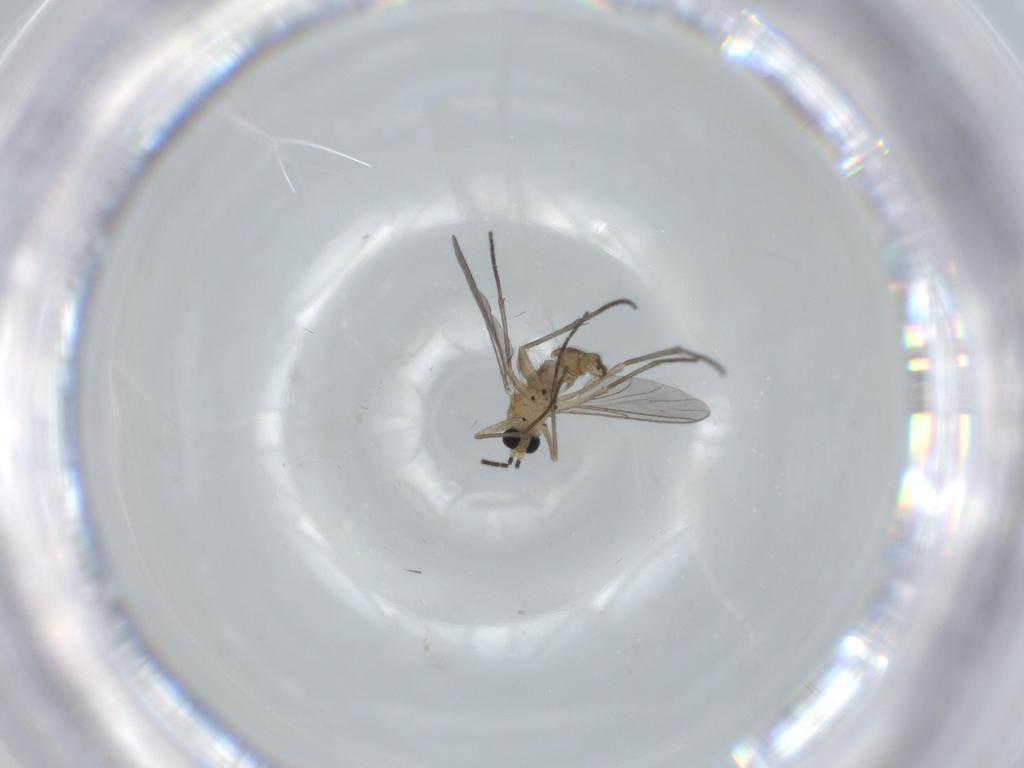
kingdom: Animalia
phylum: Arthropoda
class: Insecta
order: Diptera
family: Sciaridae
